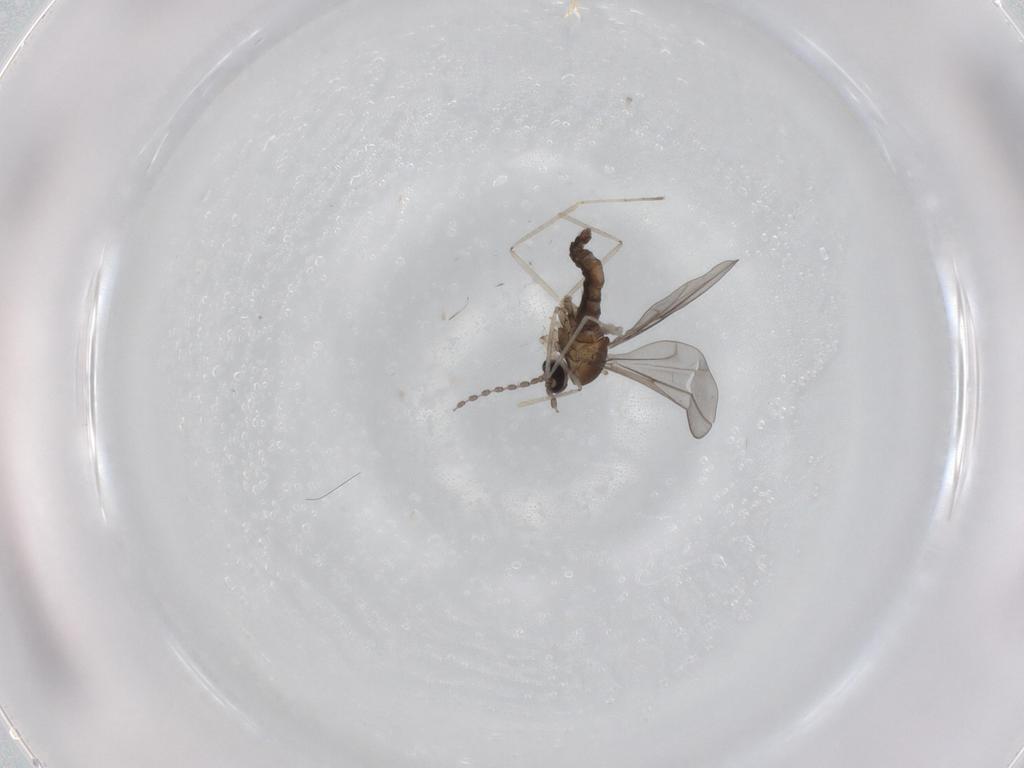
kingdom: Animalia
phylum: Arthropoda
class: Insecta
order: Diptera
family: Cecidomyiidae
